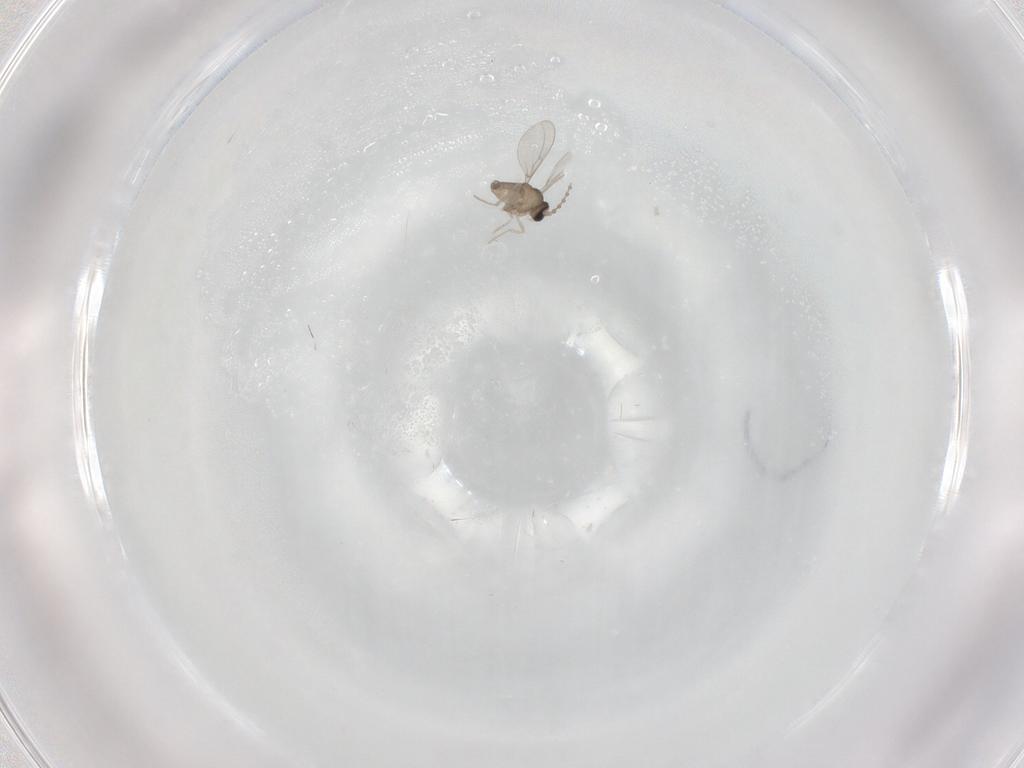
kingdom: Animalia
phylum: Arthropoda
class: Insecta
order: Diptera
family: Cecidomyiidae
